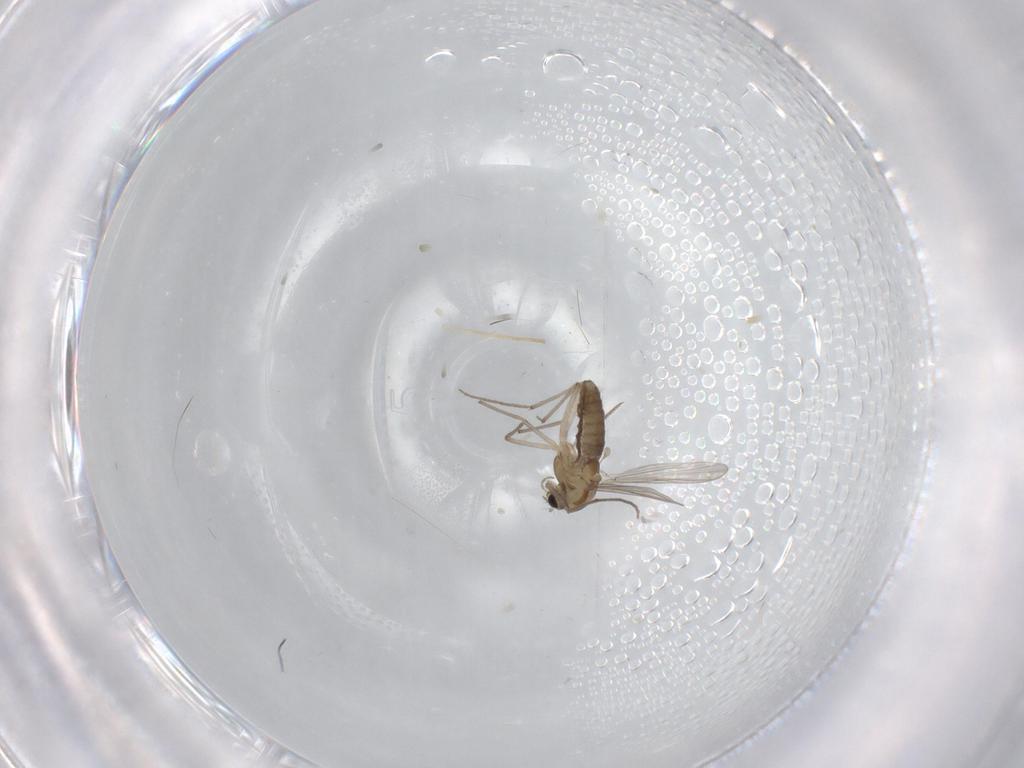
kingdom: Animalia
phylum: Arthropoda
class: Insecta
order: Diptera
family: Chironomidae
